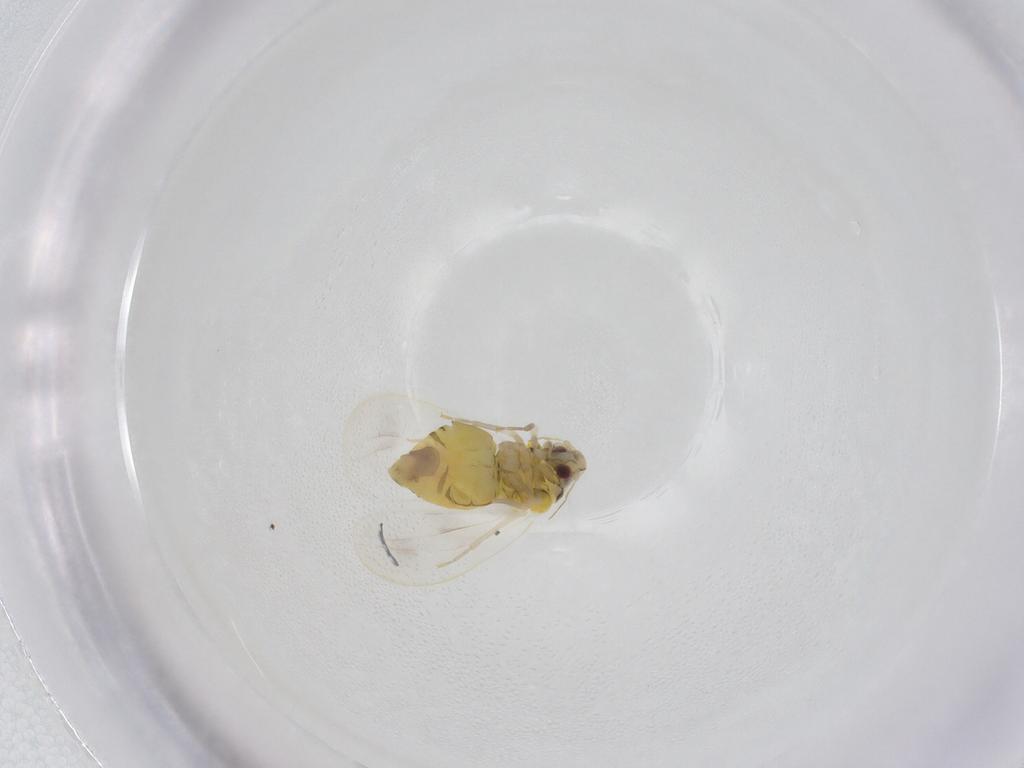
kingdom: Animalia
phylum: Arthropoda
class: Insecta
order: Hemiptera
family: Aleyrodidae
